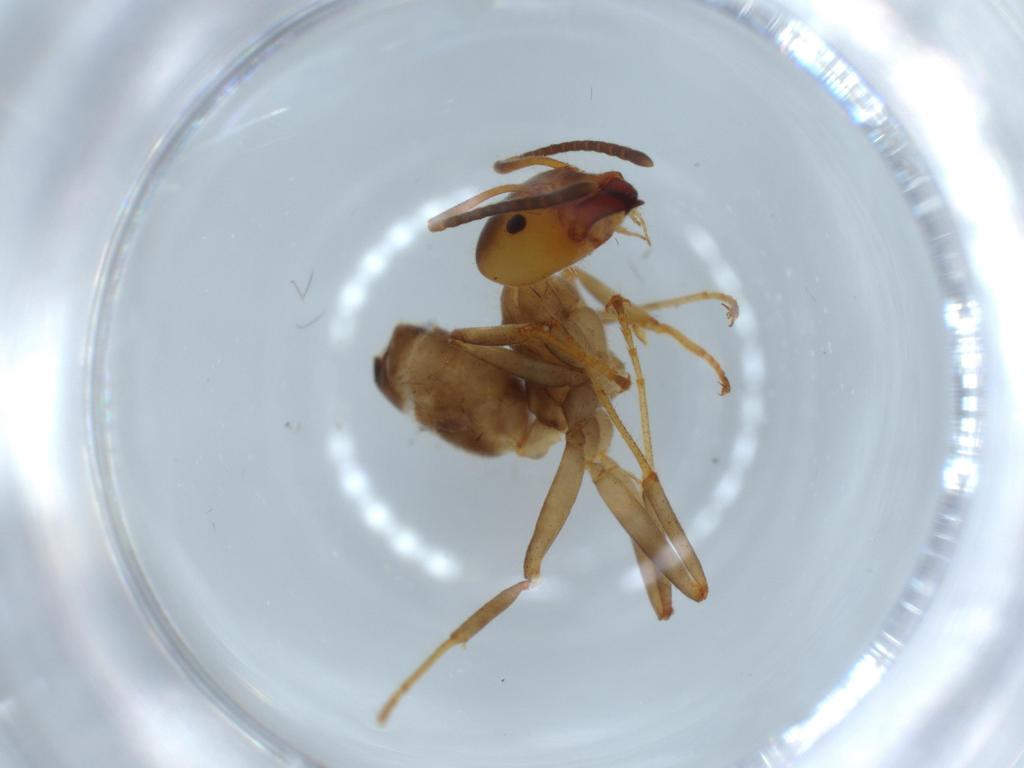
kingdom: Animalia
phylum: Arthropoda
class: Insecta
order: Hymenoptera
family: Formicidae
